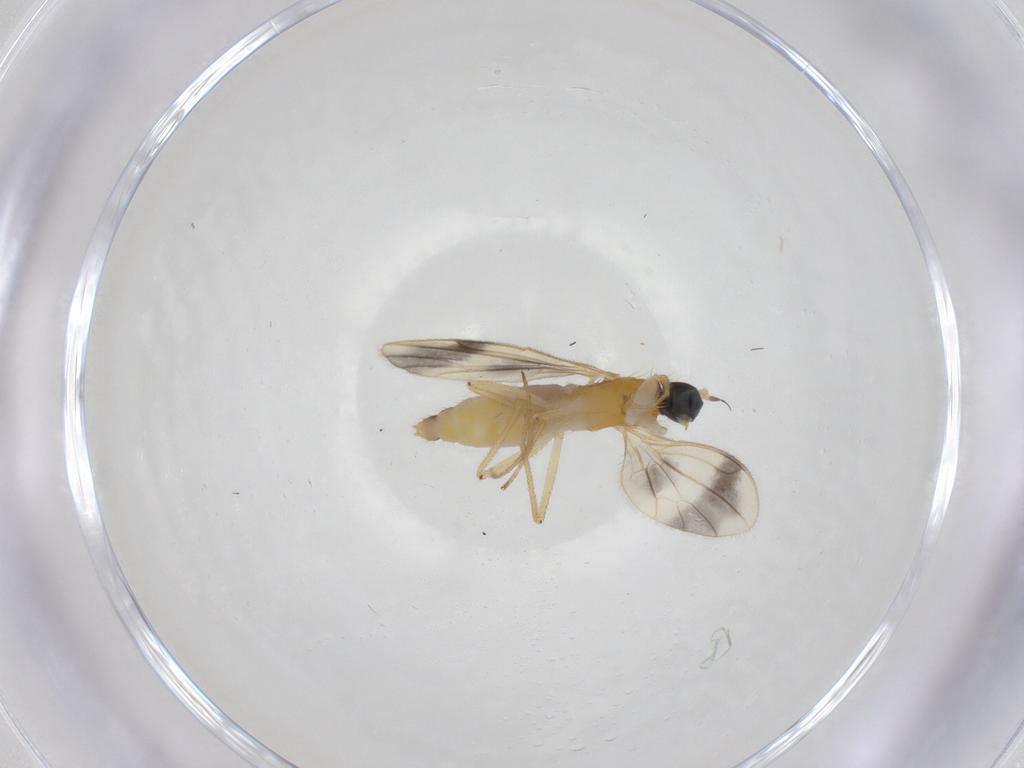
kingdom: Animalia
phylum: Arthropoda
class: Insecta
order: Diptera
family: Empididae
